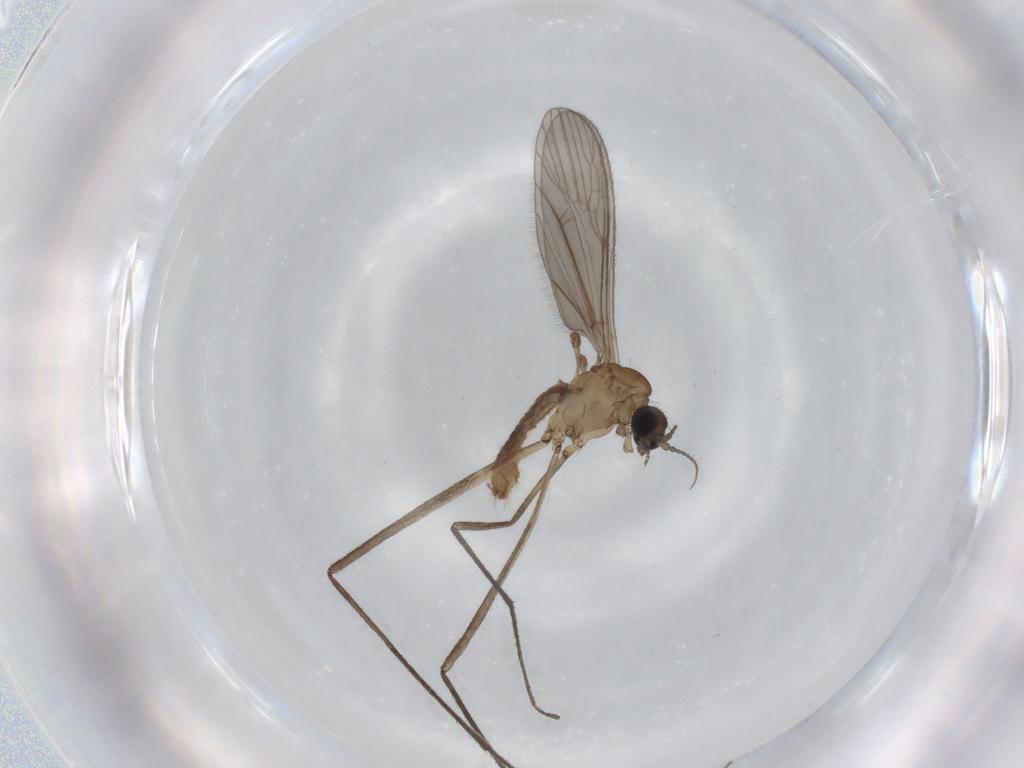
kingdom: Animalia
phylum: Arthropoda
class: Insecta
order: Diptera
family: Limoniidae
